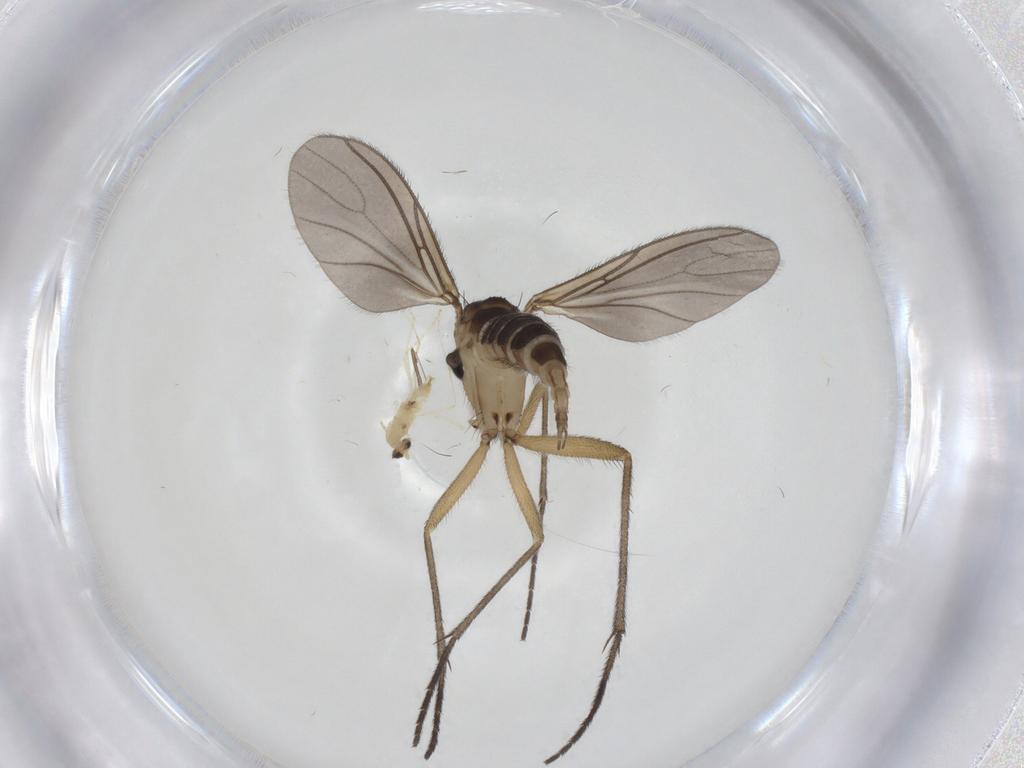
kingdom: Animalia
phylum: Arthropoda
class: Insecta
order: Diptera
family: Sciaridae
